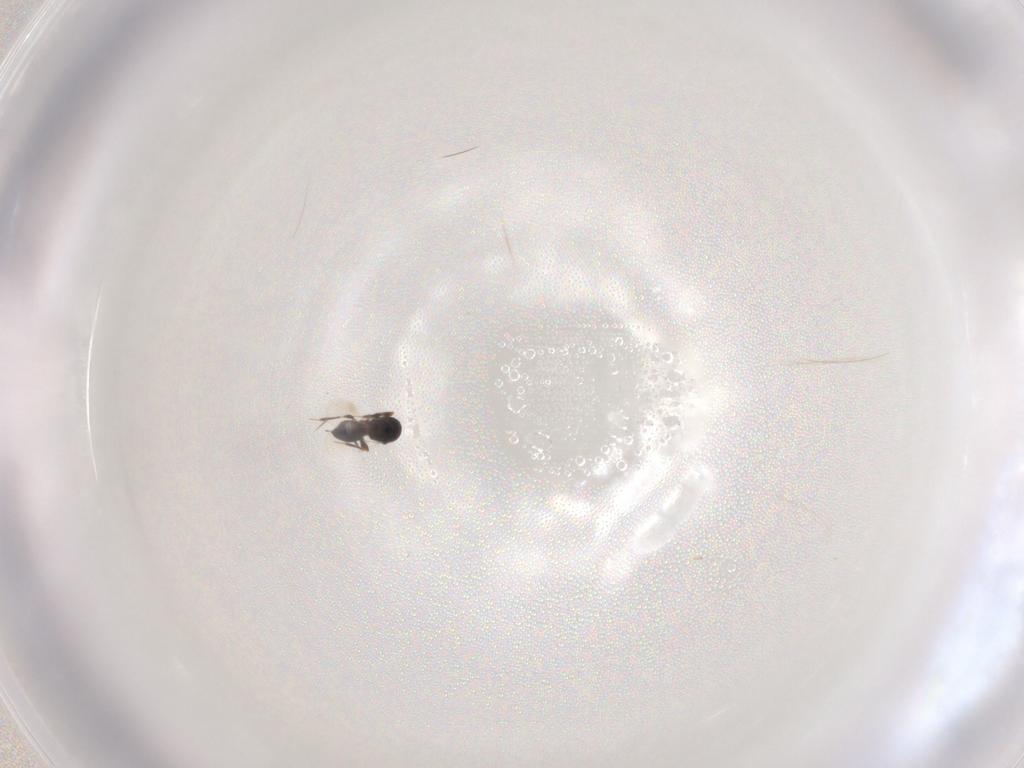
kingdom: Animalia
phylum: Arthropoda
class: Insecta
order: Hymenoptera
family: Platygastridae
